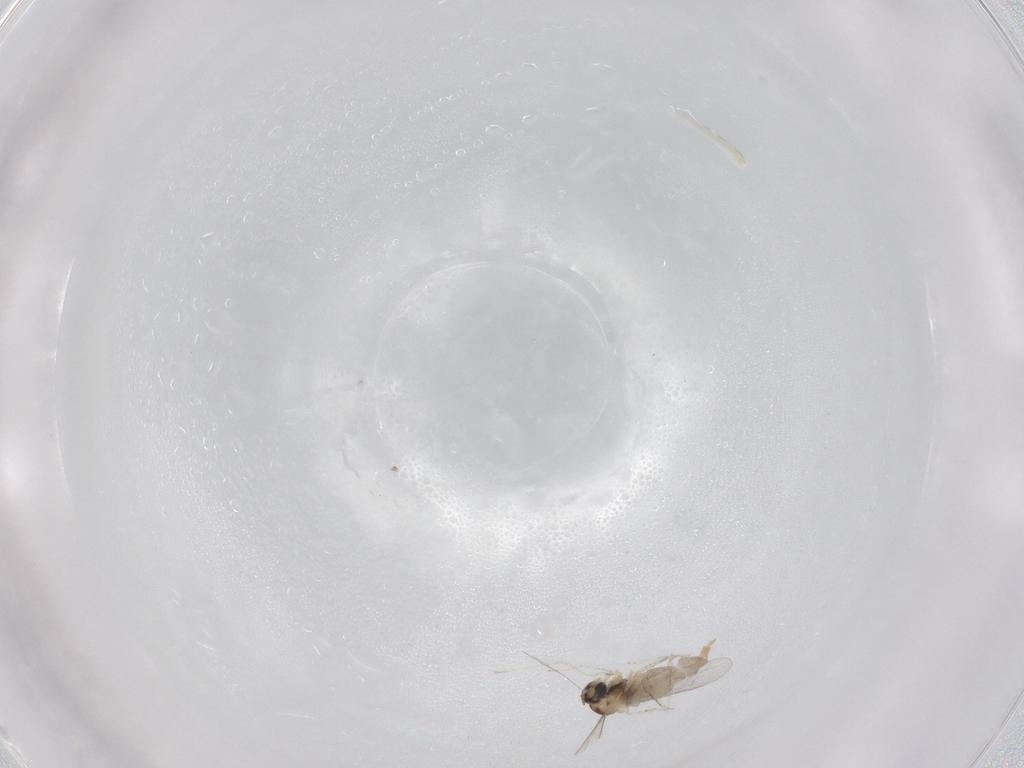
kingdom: Animalia
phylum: Arthropoda
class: Insecta
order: Diptera
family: Cecidomyiidae
